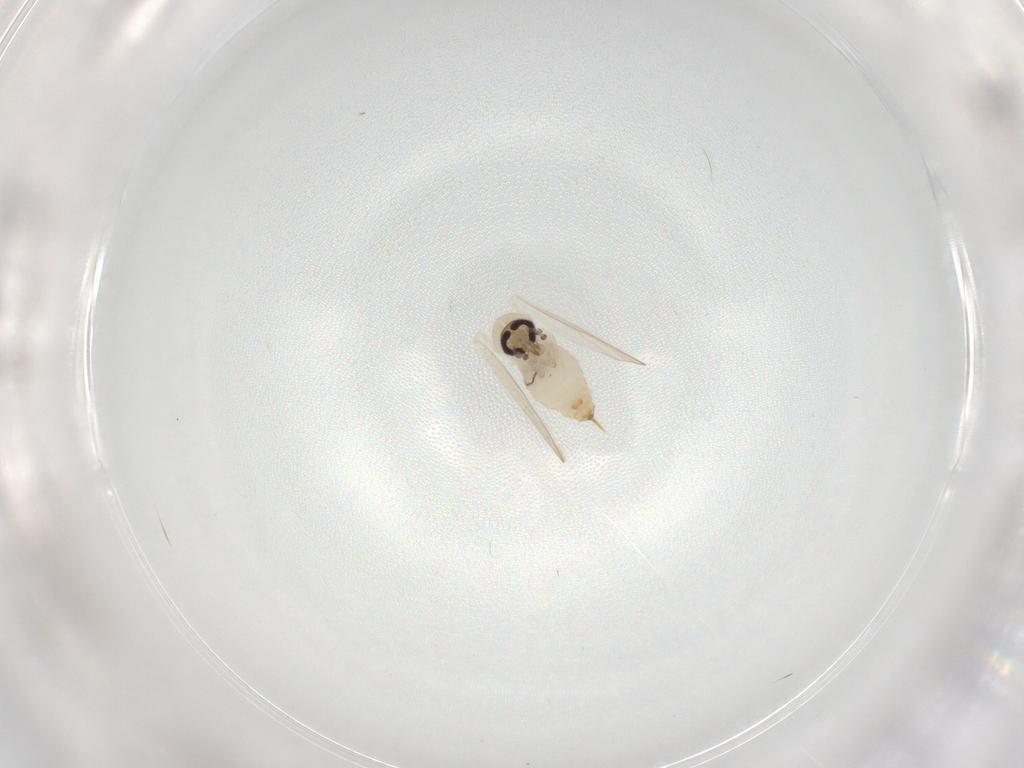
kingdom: Animalia
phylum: Arthropoda
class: Insecta
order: Diptera
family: Psychodidae
